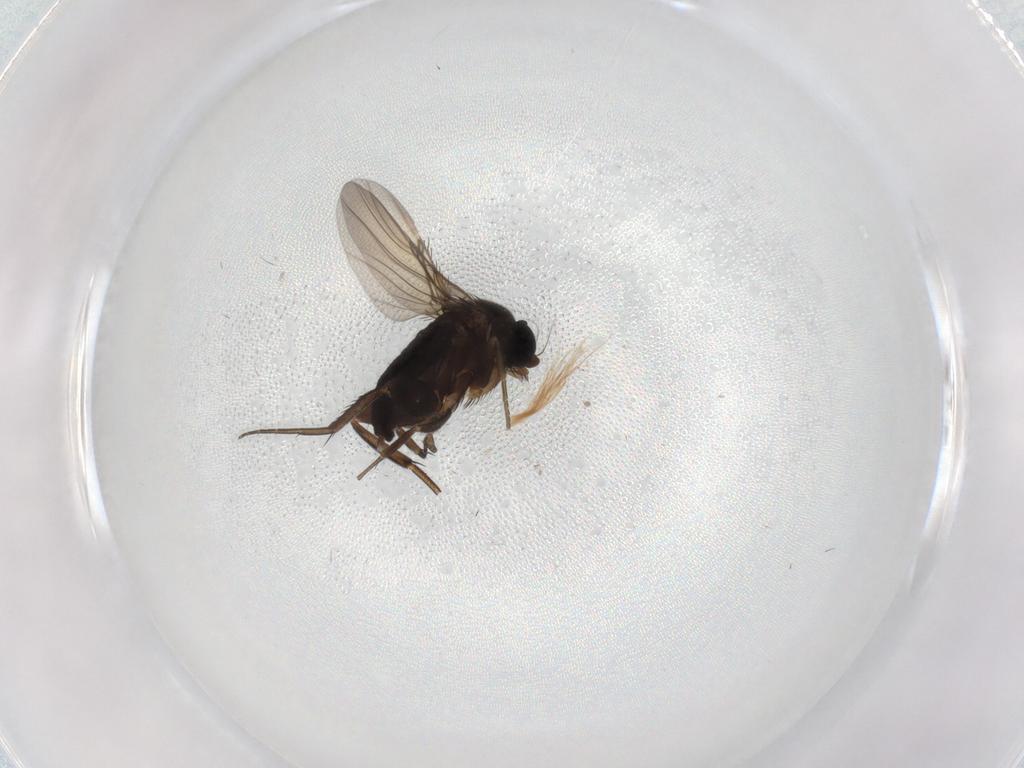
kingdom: Animalia
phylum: Arthropoda
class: Insecta
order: Diptera
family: Phoridae
